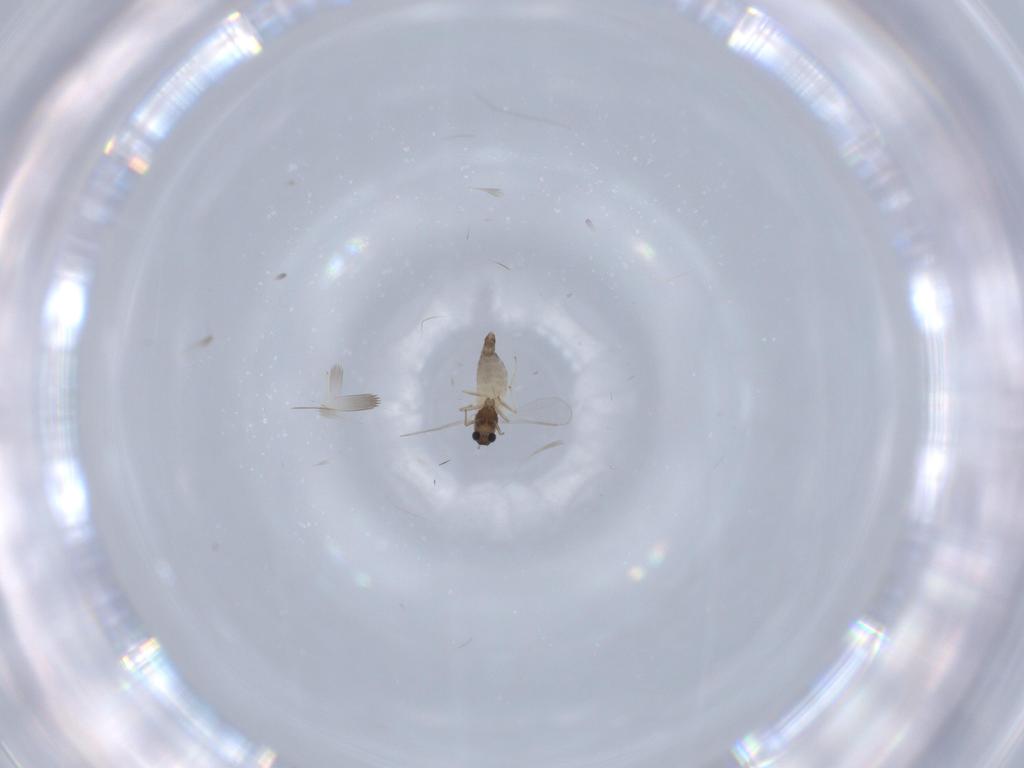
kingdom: Animalia
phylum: Arthropoda
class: Insecta
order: Diptera
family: Chironomidae
